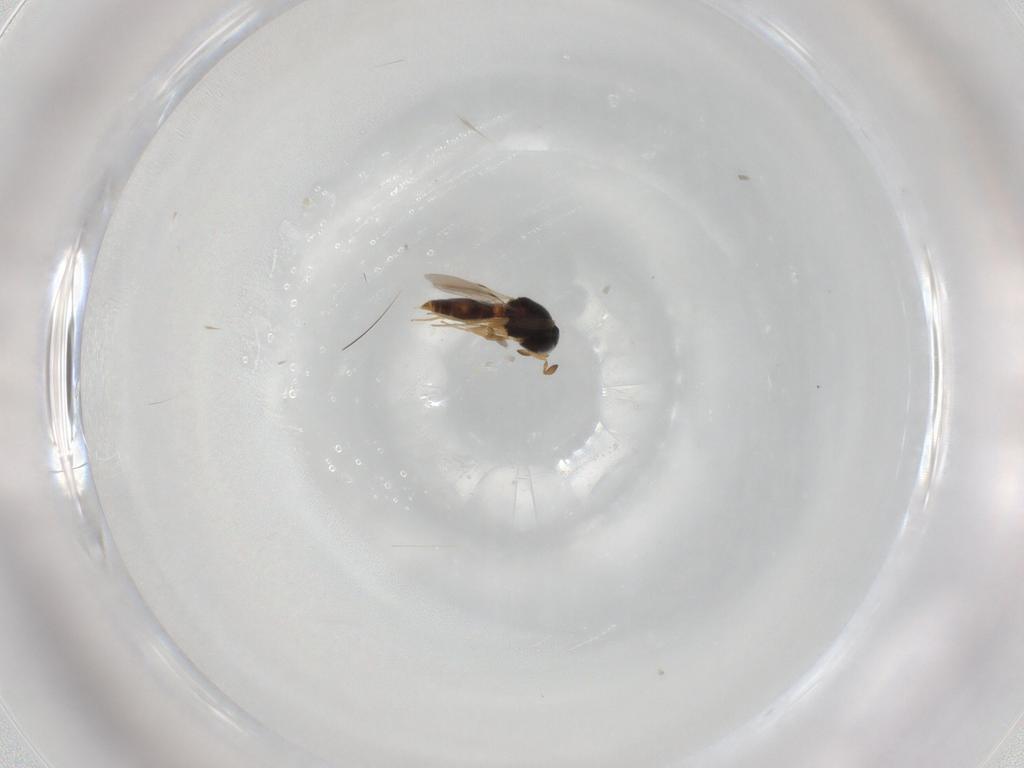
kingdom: Animalia
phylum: Arthropoda
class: Insecta
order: Hymenoptera
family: Scelionidae
